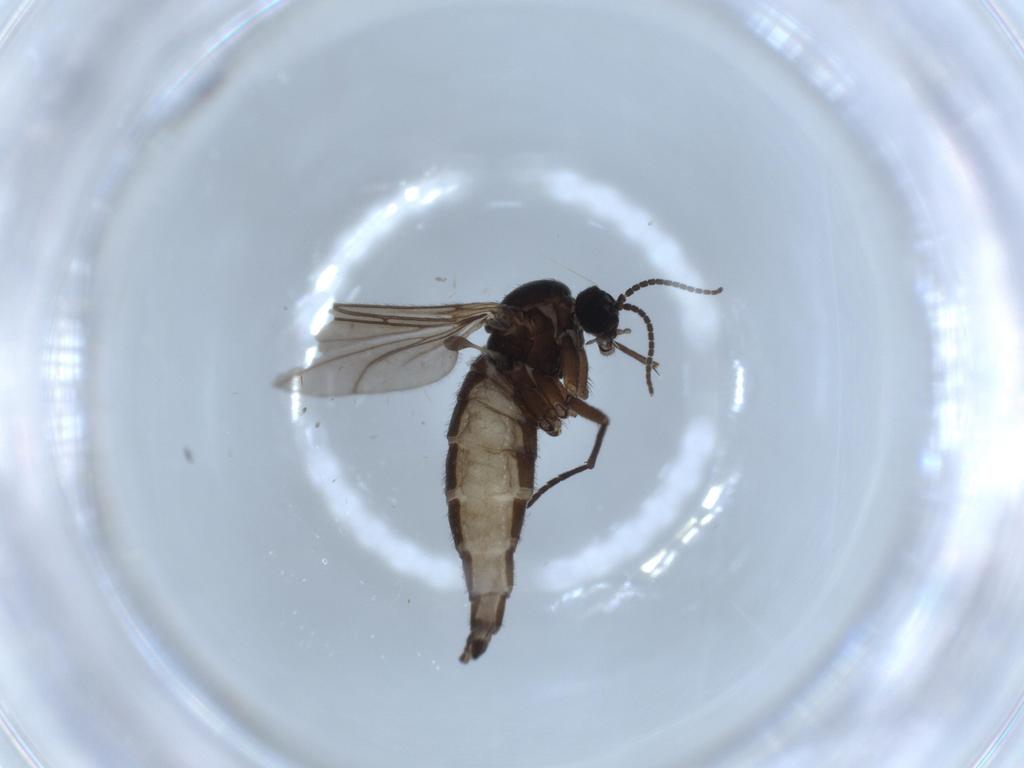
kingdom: Animalia
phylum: Arthropoda
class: Insecta
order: Diptera
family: Sciaridae
